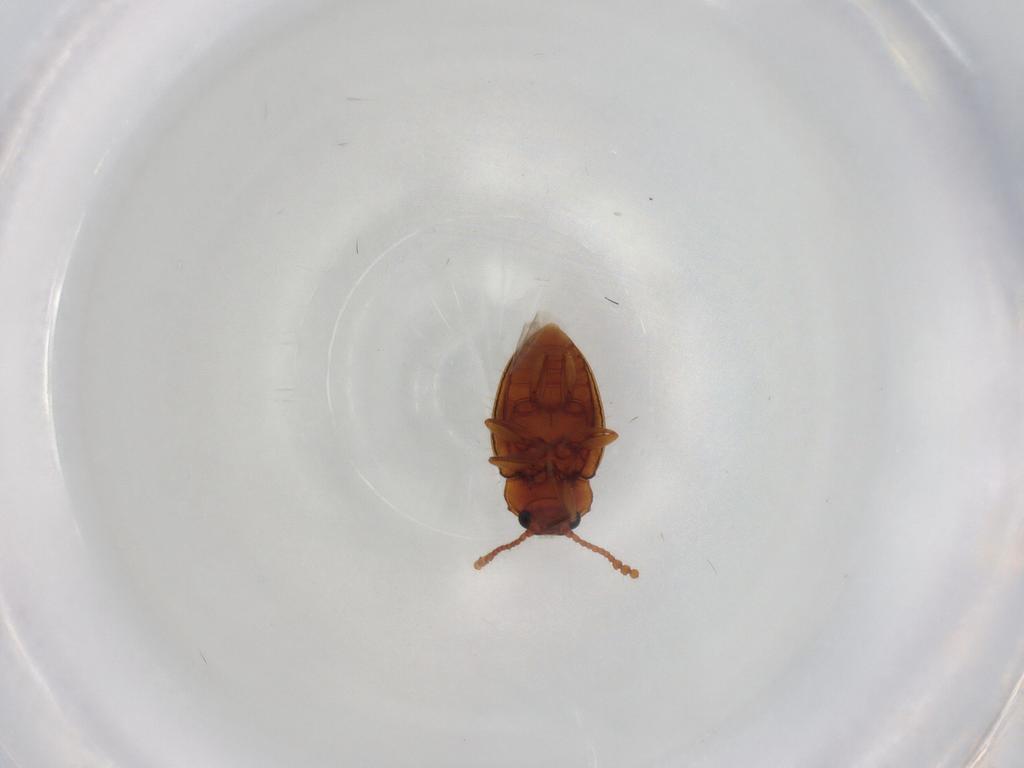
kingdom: Animalia
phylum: Arthropoda
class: Insecta
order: Coleoptera
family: Erotylidae
